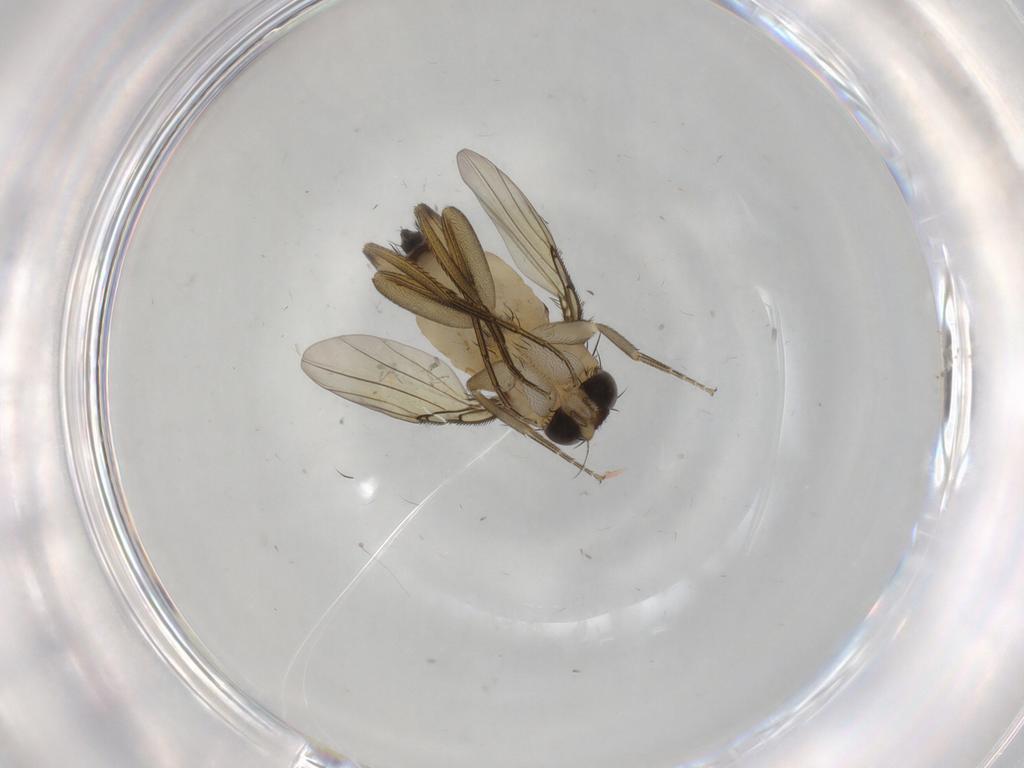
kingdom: Animalia
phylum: Arthropoda
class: Insecta
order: Diptera
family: Phoridae
